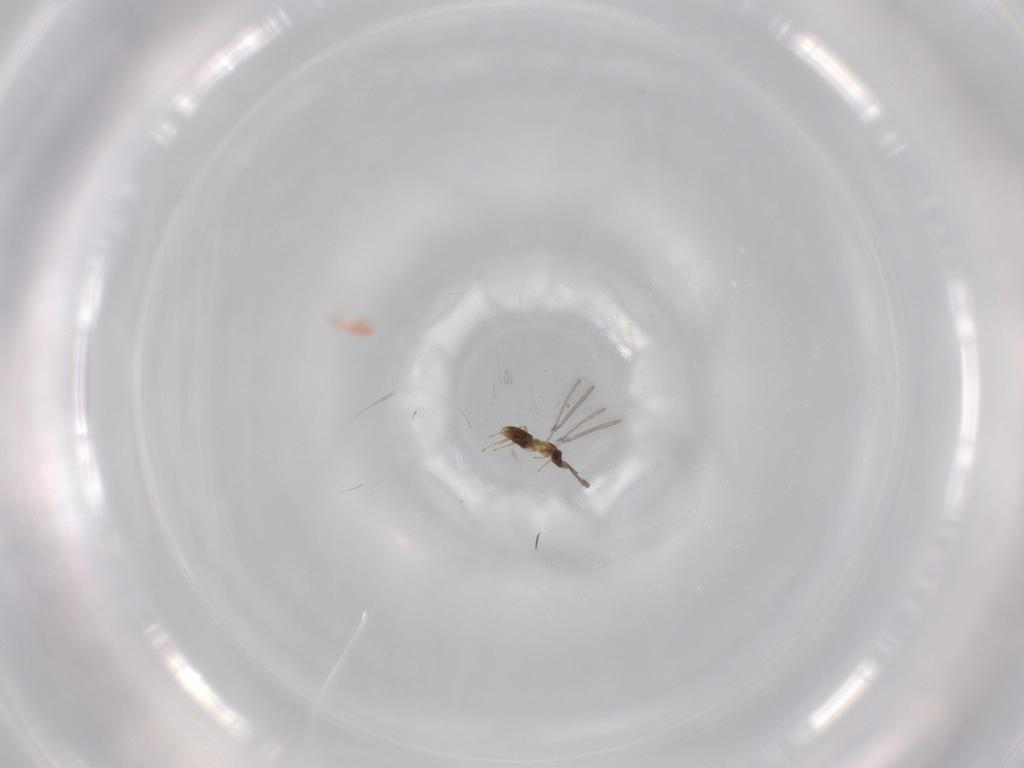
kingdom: Animalia
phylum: Arthropoda
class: Insecta
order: Hymenoptera
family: Mymaridae
